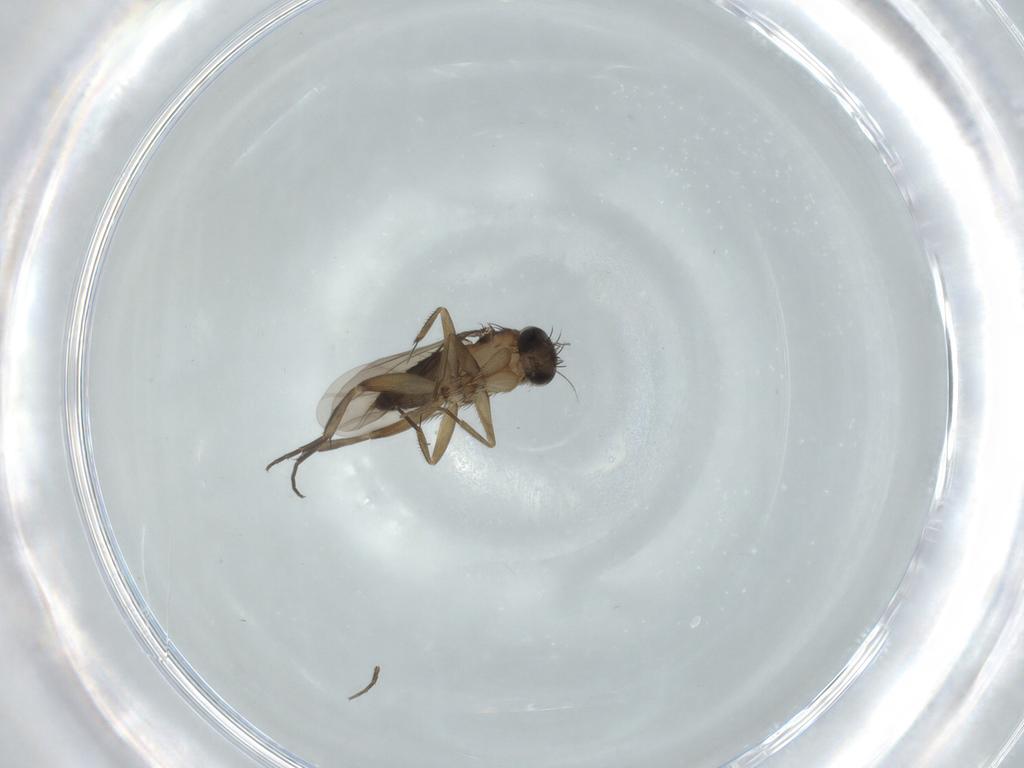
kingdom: Animalia
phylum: Arthropoda
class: Insecta
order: Diptera
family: Phoridae
